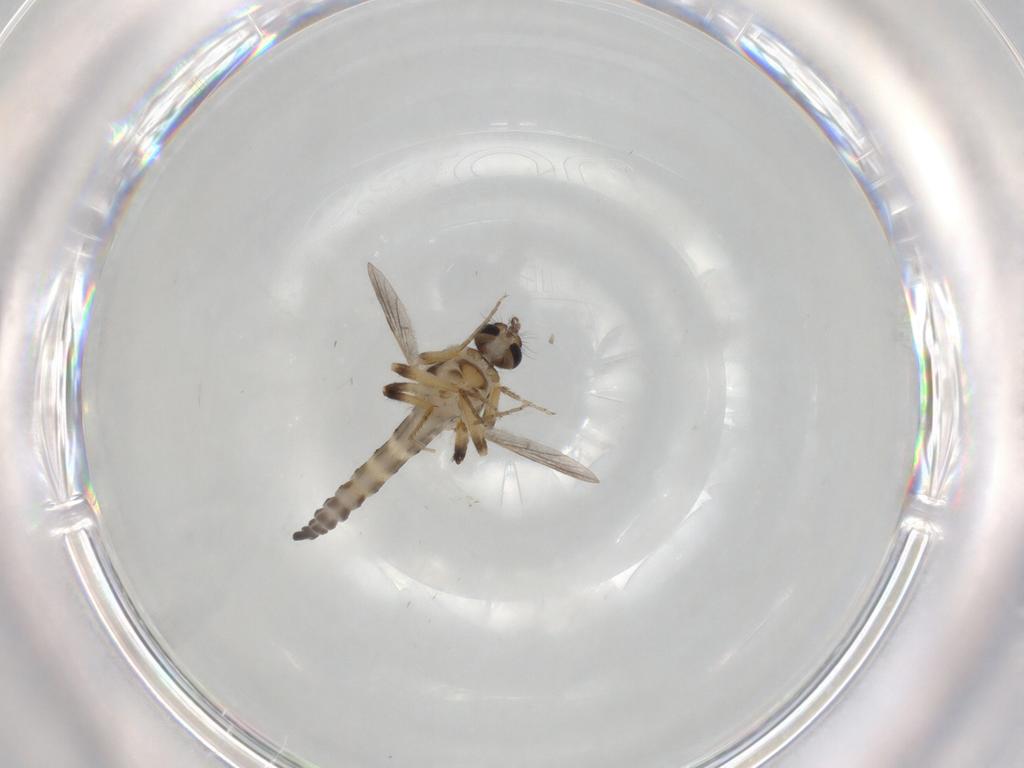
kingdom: Animalia
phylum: Arthropoda
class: Insecta
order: Diptera
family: Ceratopogonidae
